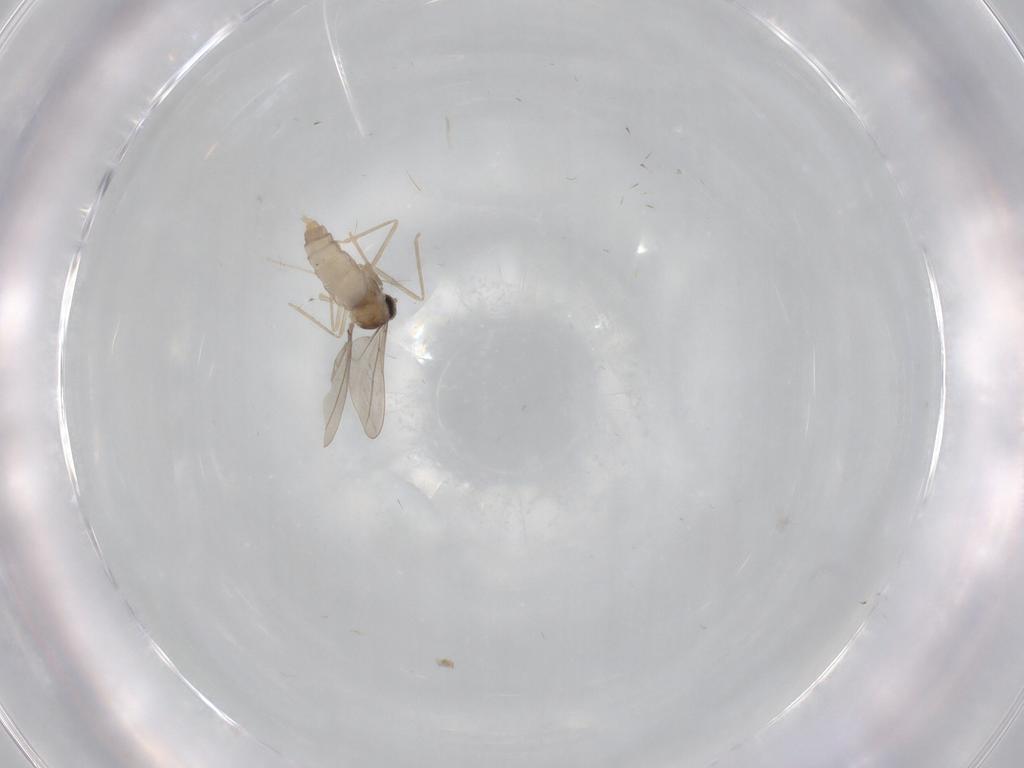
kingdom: Animalia
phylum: Arthropoda
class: Insecta
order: Diptera
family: Cecidomyiidae
